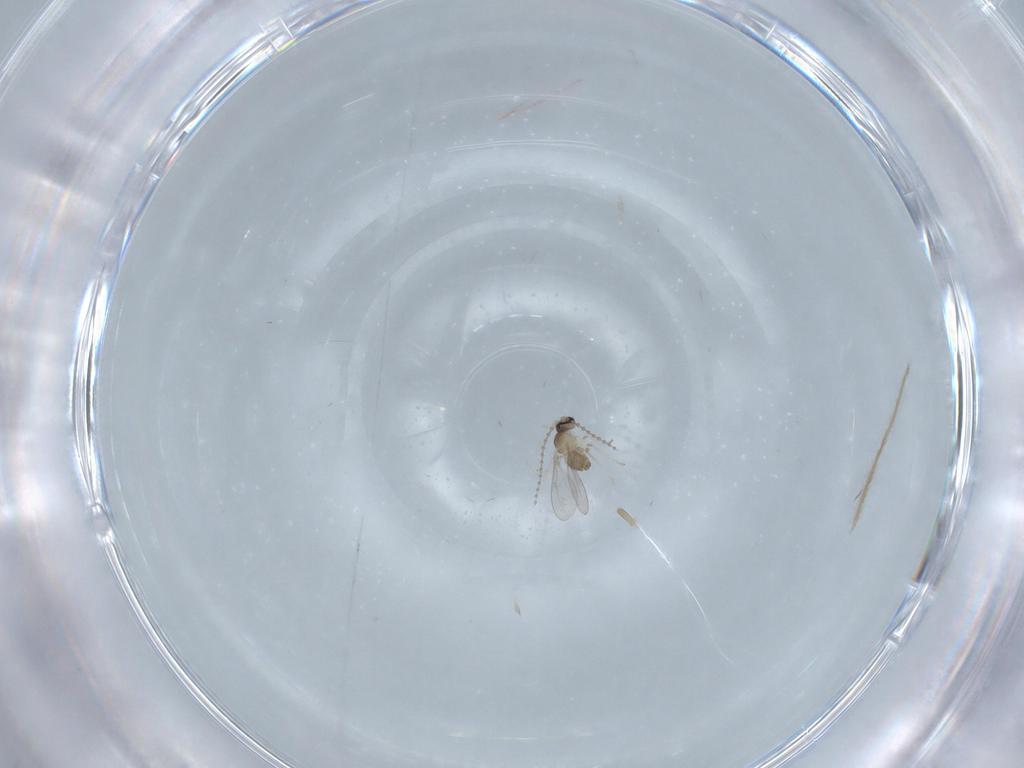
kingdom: Animalia
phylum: Arthropoda
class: Insecta
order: Diptera
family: Chironomidae
